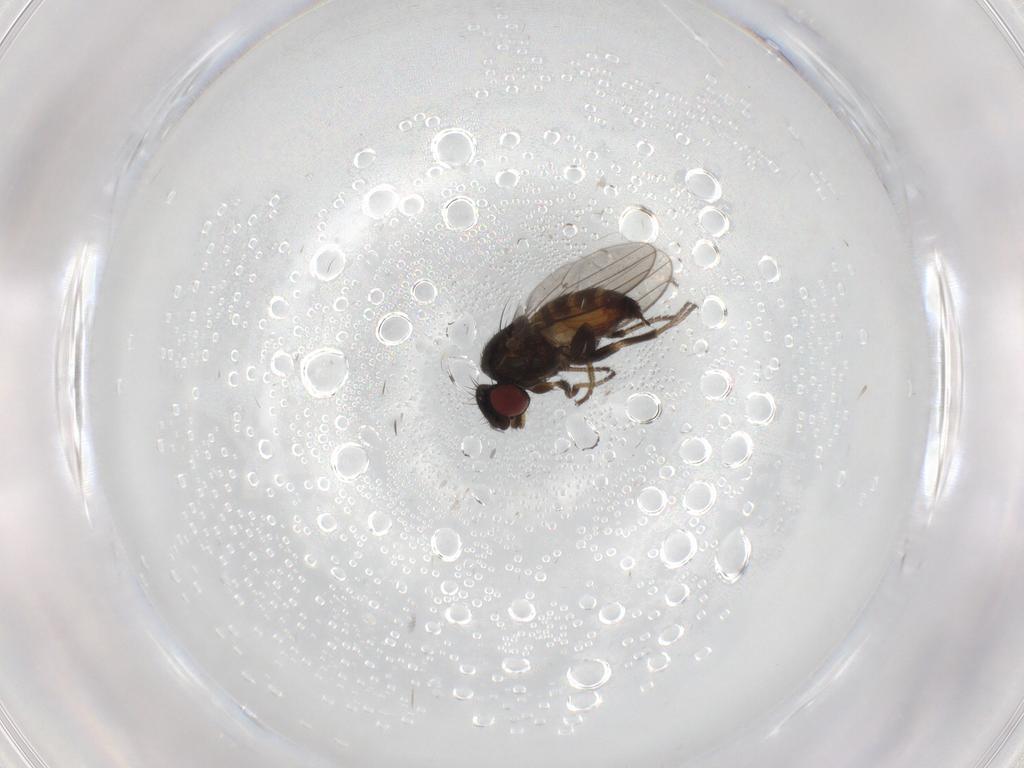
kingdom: Animalia
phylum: Arthropoda
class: Insecta
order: Diptera
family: Milichiidae
